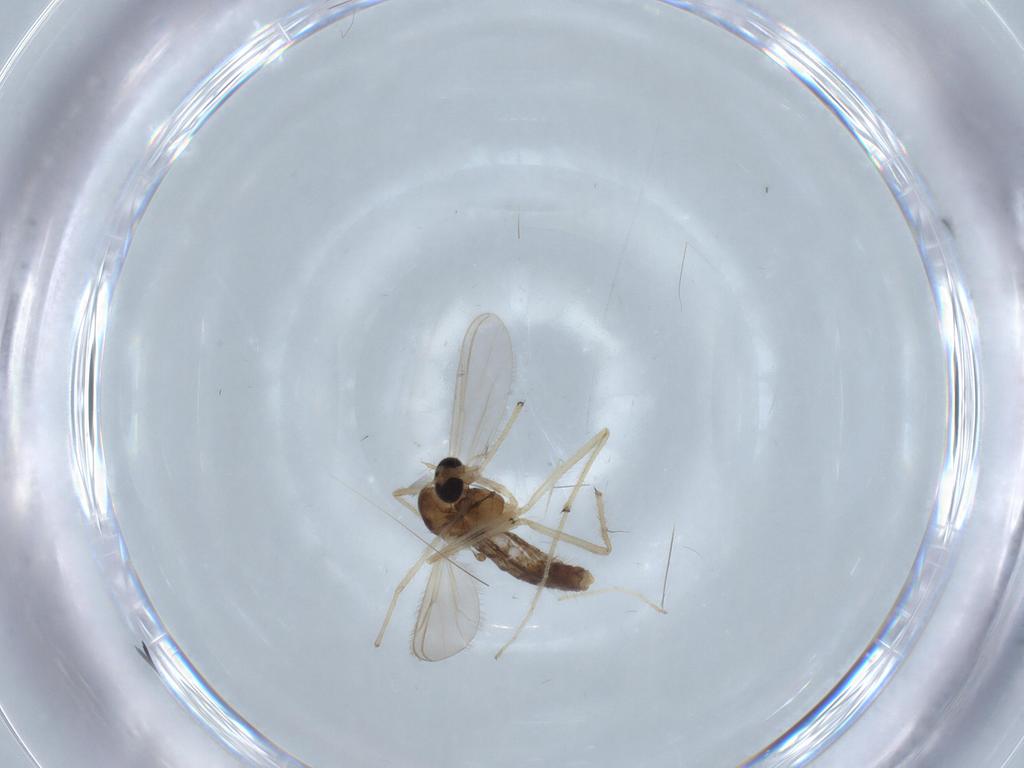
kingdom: Animalia
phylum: Arthropoda
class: Insecta
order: Diptera
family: Chironomidae
